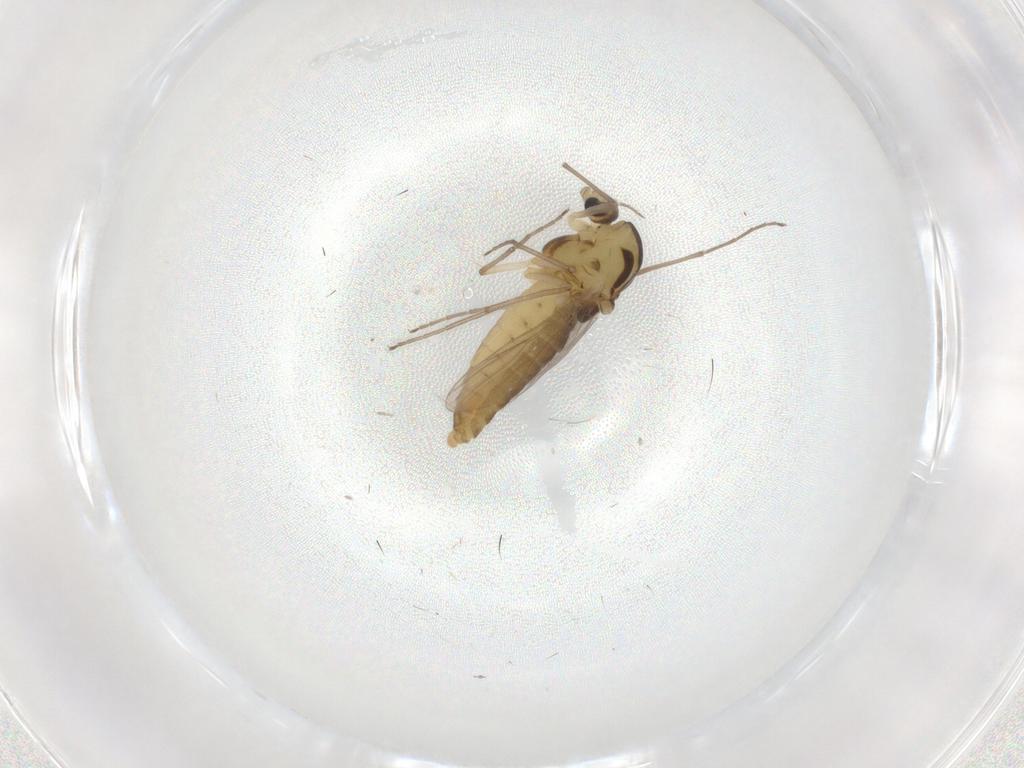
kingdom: Animalia
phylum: Arthropoda
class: Insecta
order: Diptera
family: Chironomidae
